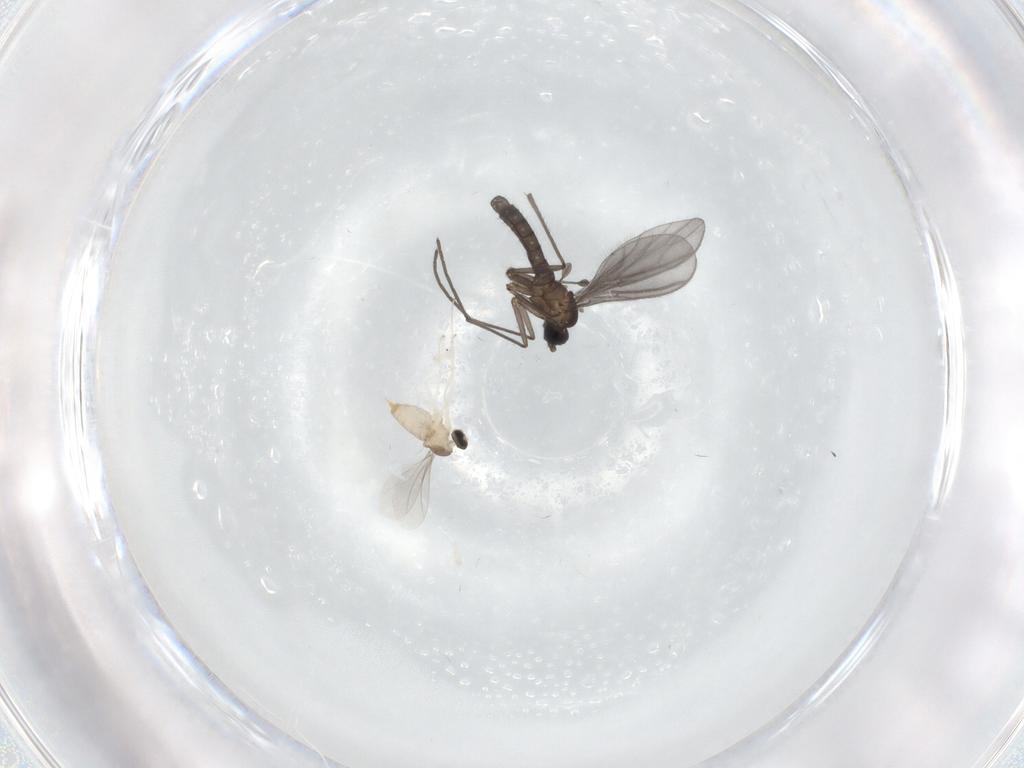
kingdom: Animalia
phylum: Arthropoda
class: Insecta
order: Diptera
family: Sciaridae
